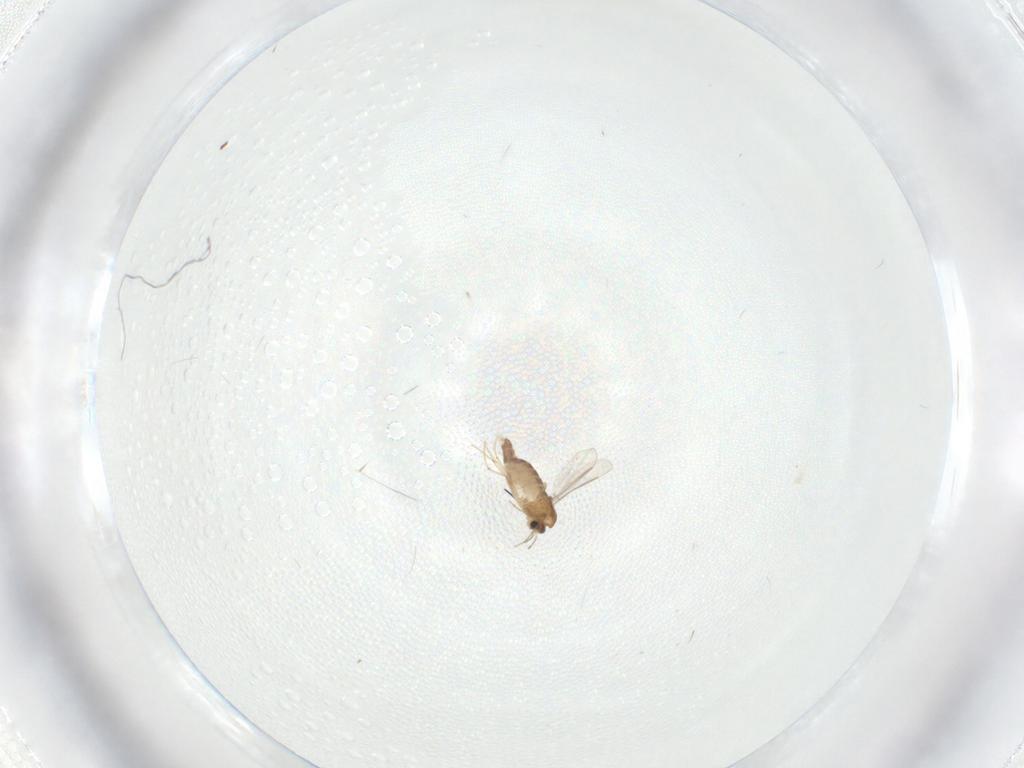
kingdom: Animalia
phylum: Arthropoda
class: Insecta
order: Diptera
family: Chironomidae
